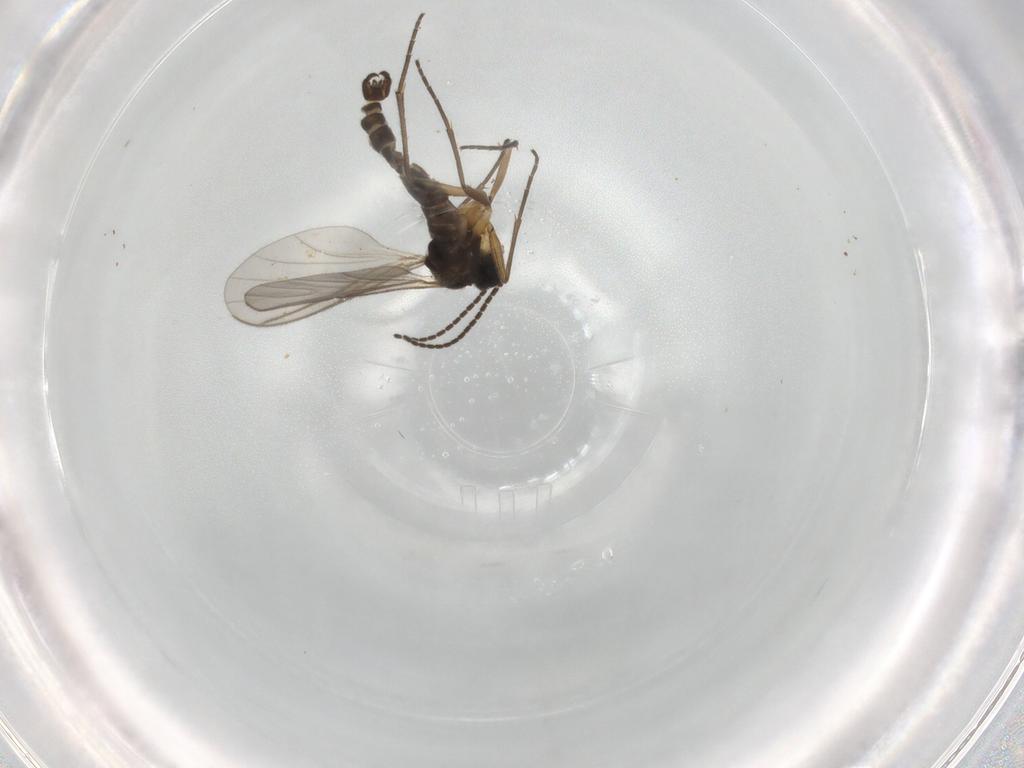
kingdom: Animalia
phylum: Arthropoda
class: Insecta
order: Diptera
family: Sciaridae
